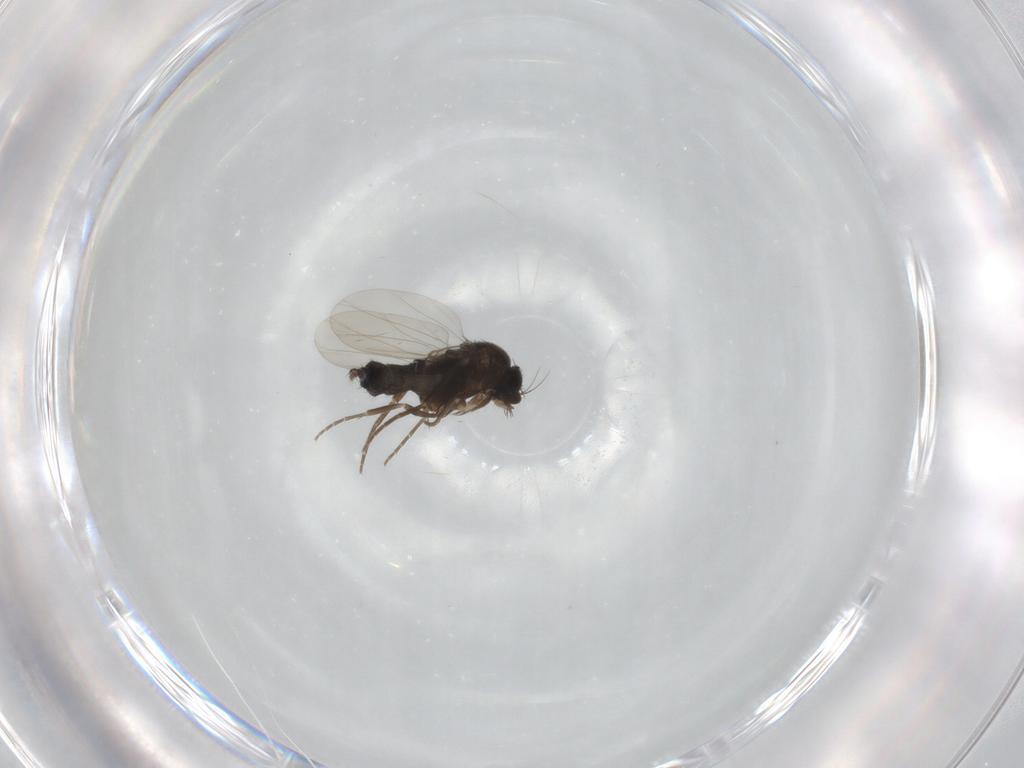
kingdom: Animalia
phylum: Arthropoda
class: Insecta
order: Diptera
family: Phoridae
